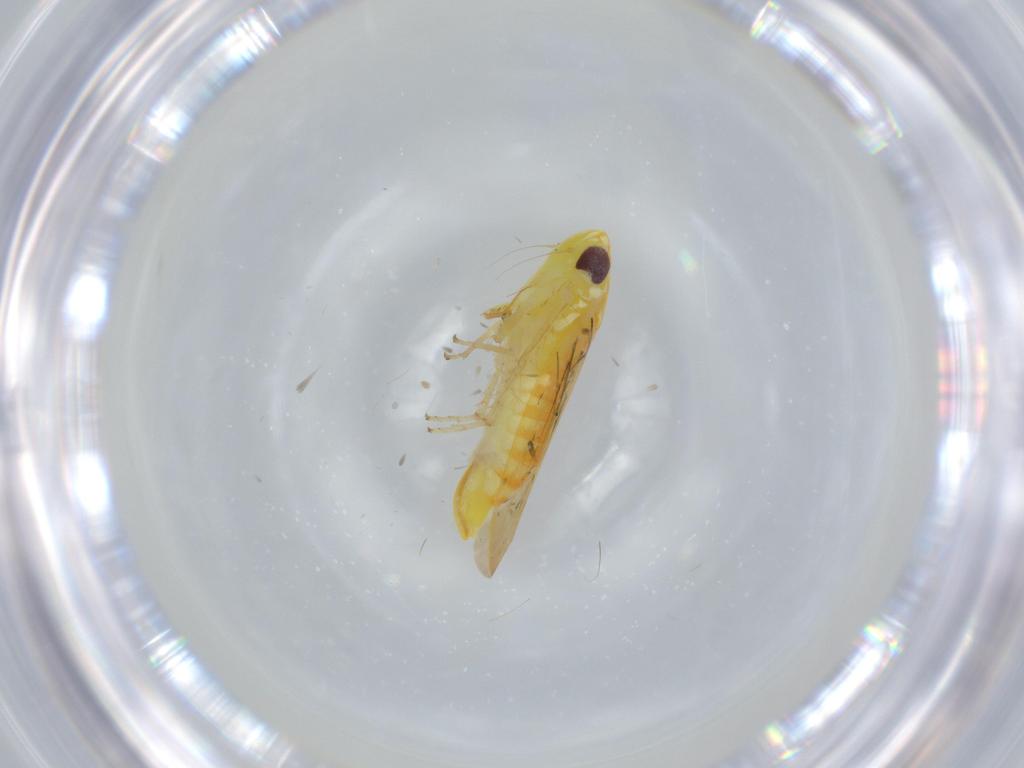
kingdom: Animalia
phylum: Arthropoda
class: Insecta
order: Hemiptera
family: Cicadellidae
